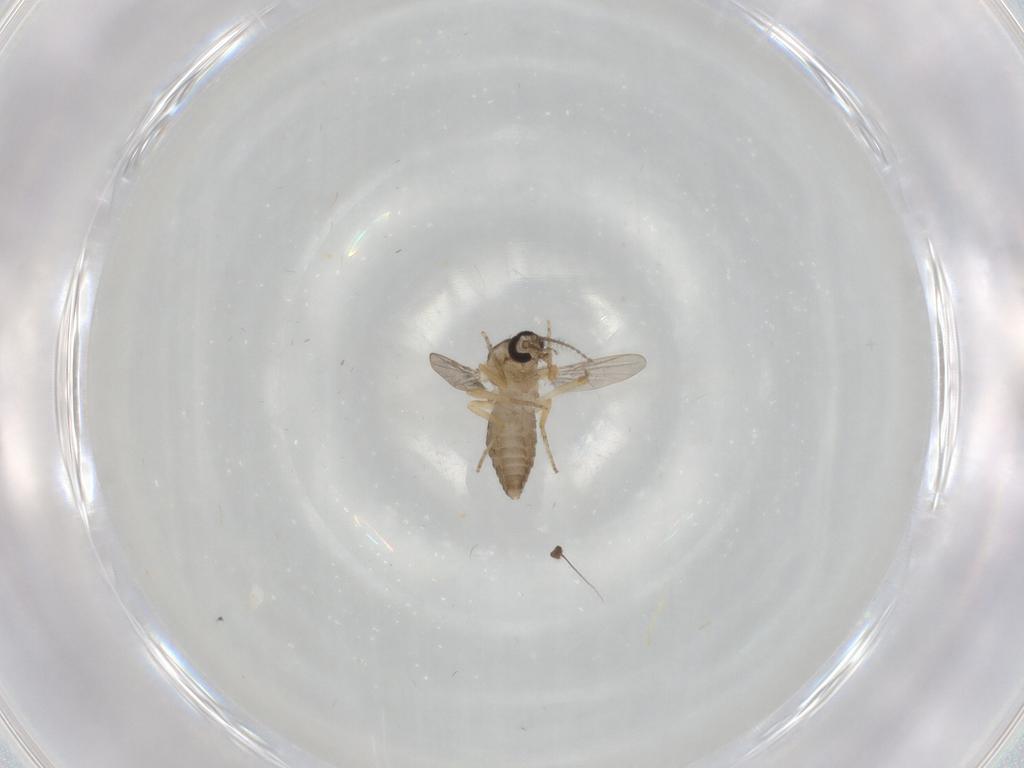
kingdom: Animalia
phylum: Arthropoda
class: Insecta
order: Diptera
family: Ceratopogonidae
